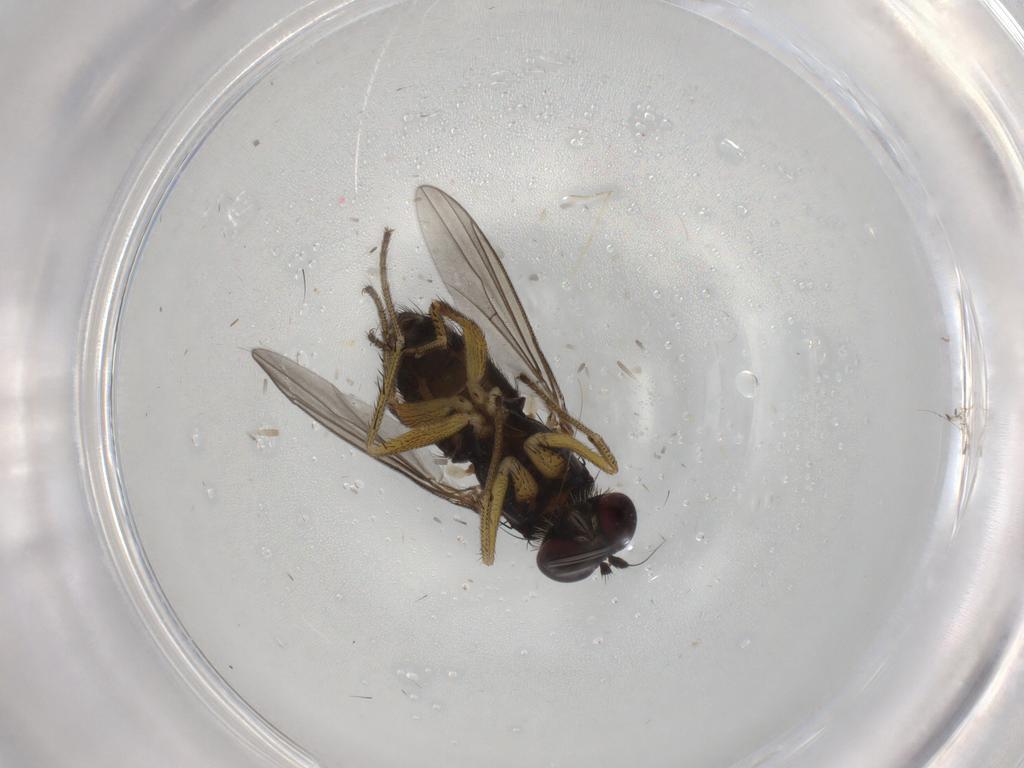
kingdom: Animalia
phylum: Arthropoda
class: Insecta
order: Diptera
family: Dolichopodidae
